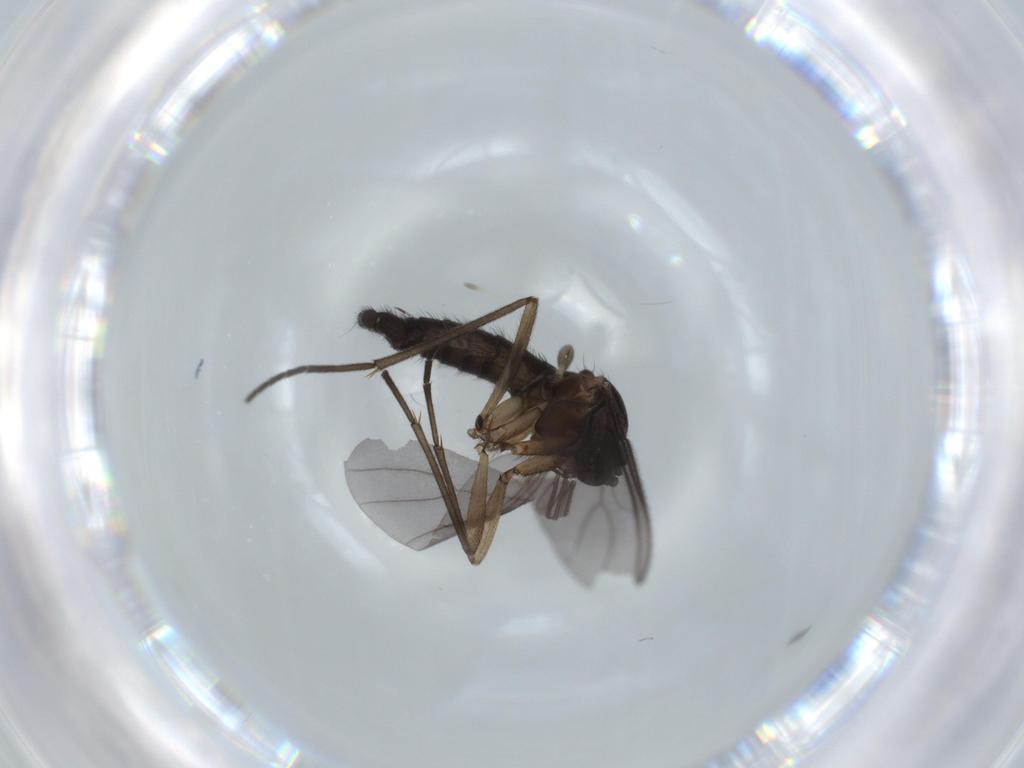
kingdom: Animalia
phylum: Arthropoda
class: Insecta
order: Diptera
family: Sciaridae
